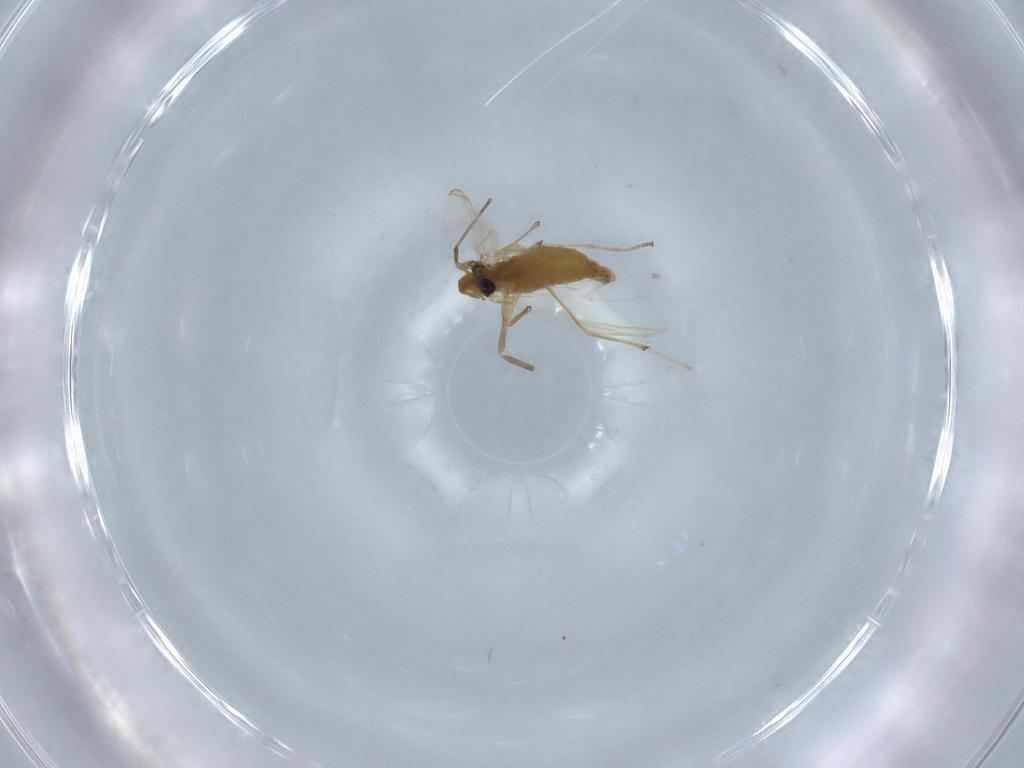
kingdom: Animalia
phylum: Arthropoda
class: Insecta
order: Diptera
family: Chironomidae
